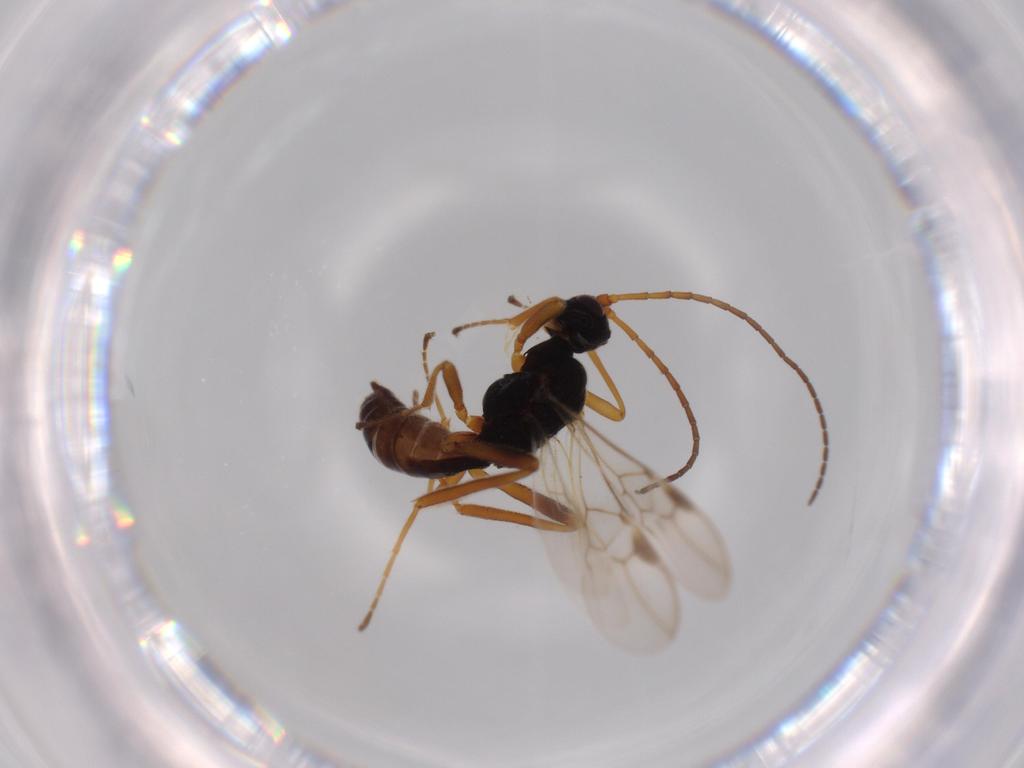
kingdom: Animalia
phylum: Arthropoda
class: Insecta
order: Hymenoptera
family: Braconidae
